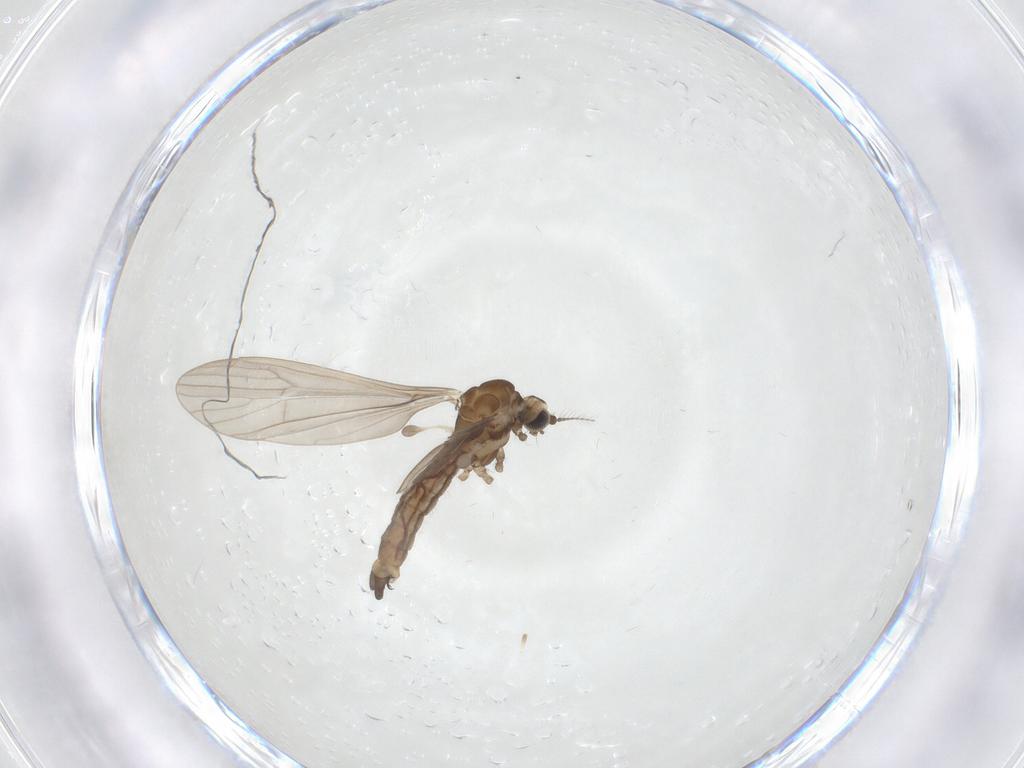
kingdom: Animalia
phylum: Arthropoda
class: Insecta
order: Diptera
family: Limoniidae
